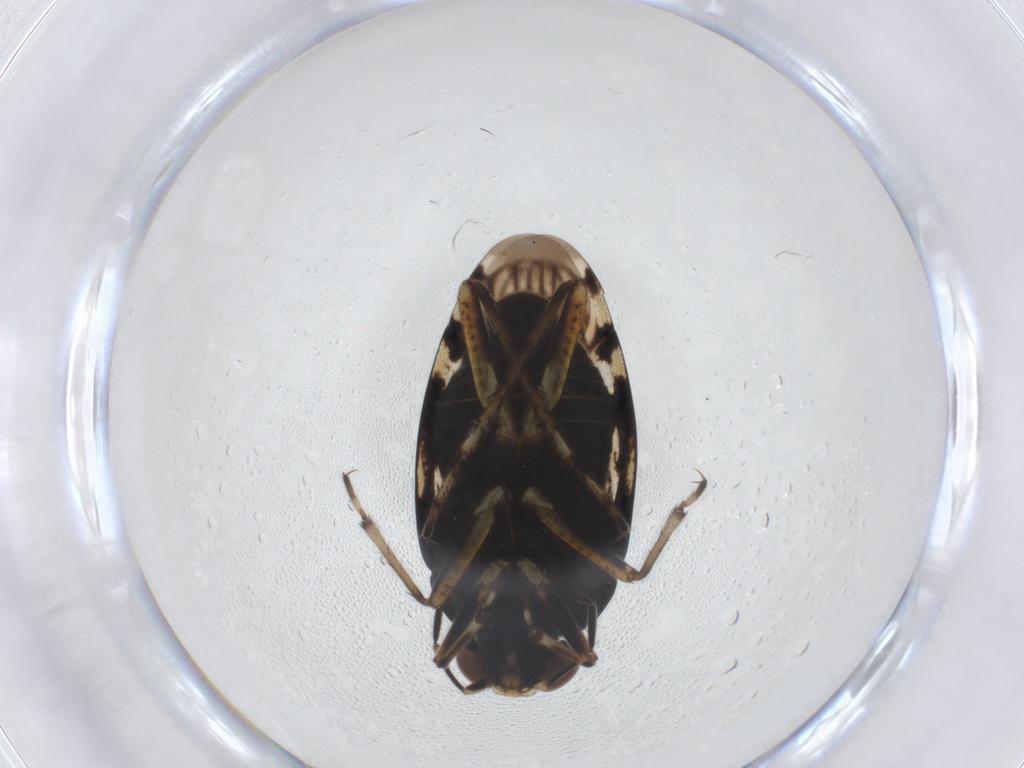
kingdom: Animalia
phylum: Arthropoda
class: Insecta
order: Hemiptera
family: Saldidae
